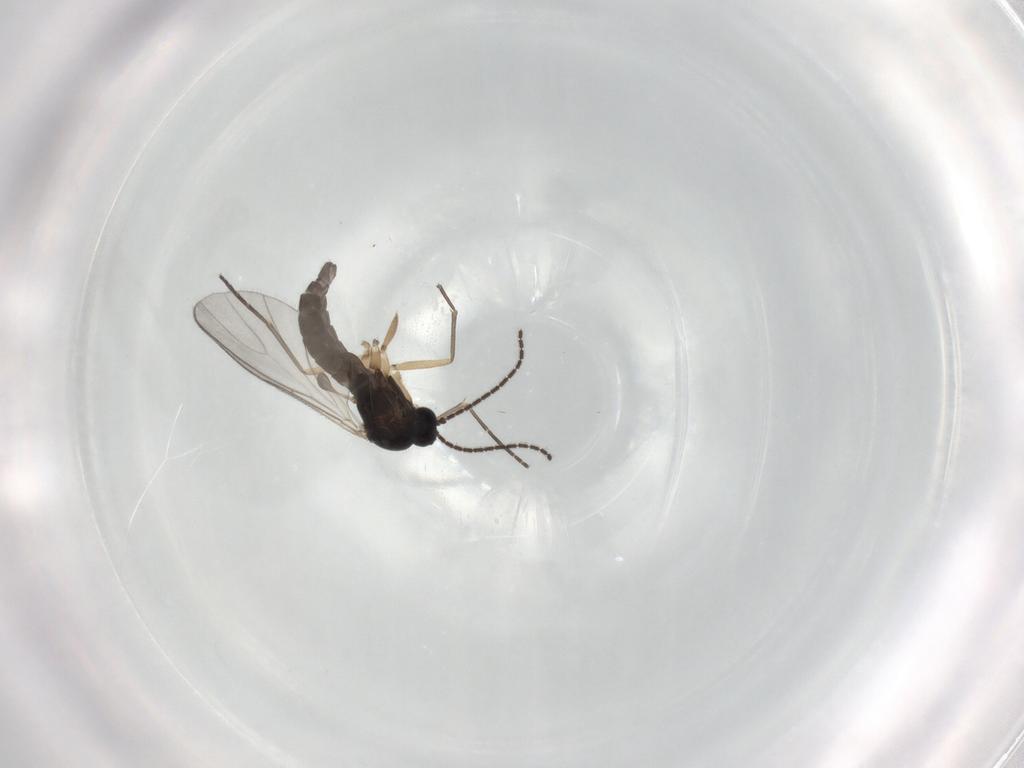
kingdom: Animalia
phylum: Arthropoda
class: Insecta
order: Diptera
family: Sciaridae
